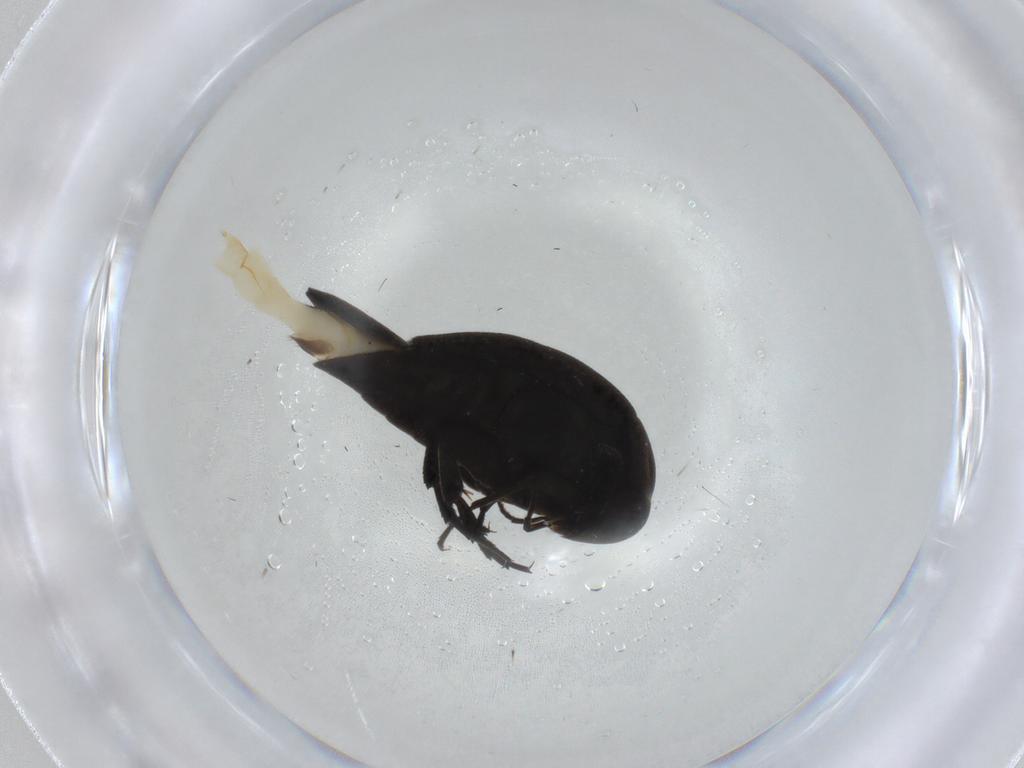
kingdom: Animalia
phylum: Arthropoda
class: Insecta
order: Coleoptera
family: Mordellidae
